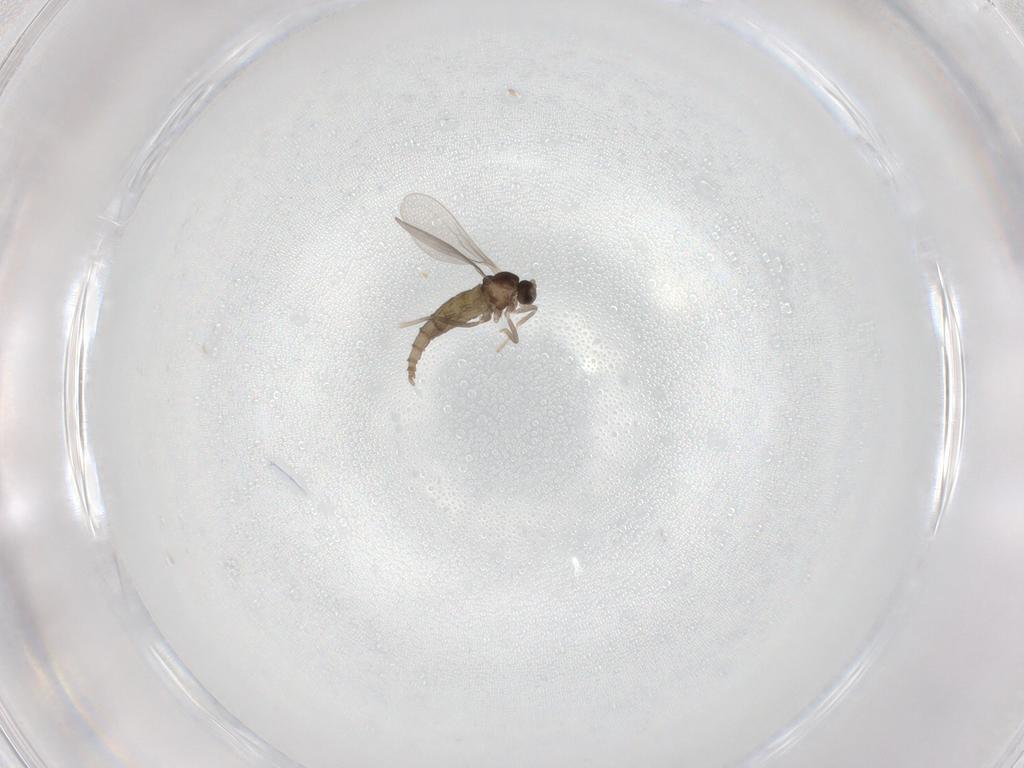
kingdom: Animalia
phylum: Arthropoda
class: Insecta
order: Diptera
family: Cecidomyiidae
